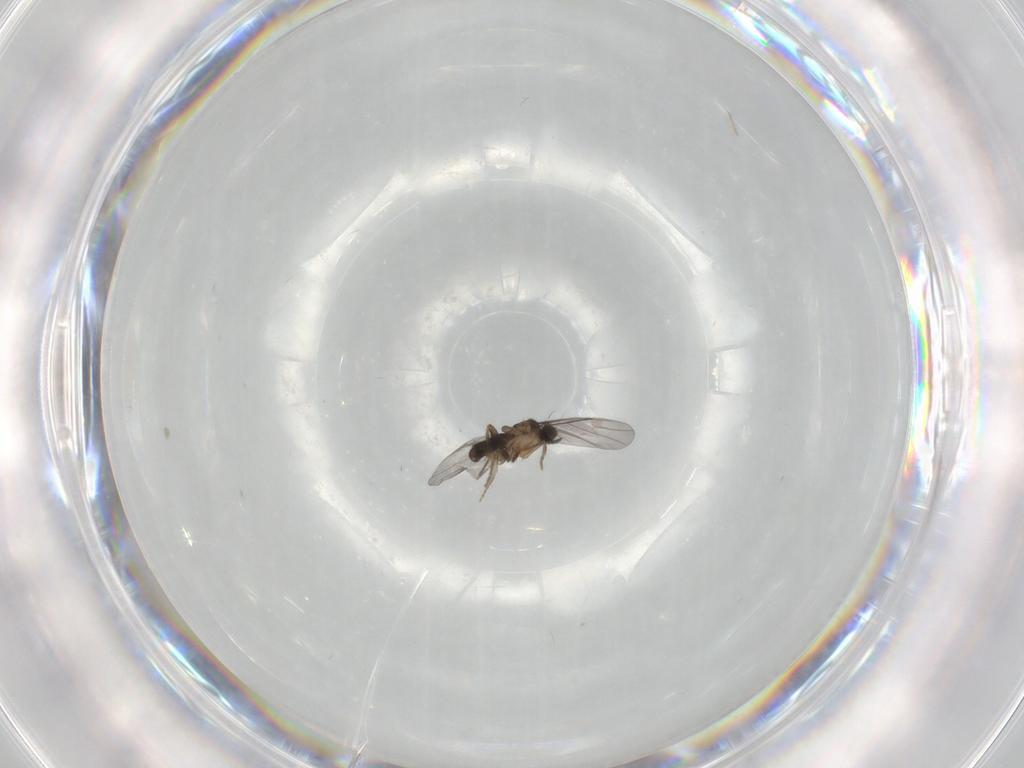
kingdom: Animalia
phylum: Arthropoda
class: Insecta
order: Diptera
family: Phoridae
